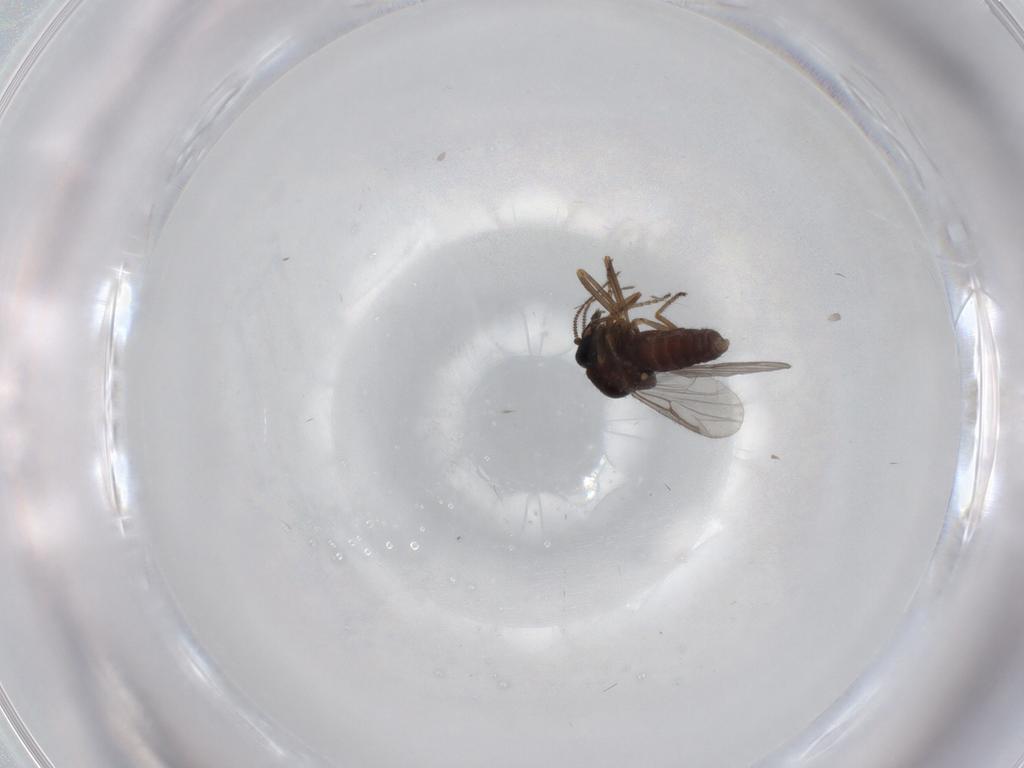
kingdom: Animalia
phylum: Arthropoda
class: Insecta
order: Diptera
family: Ceratopogonidae
